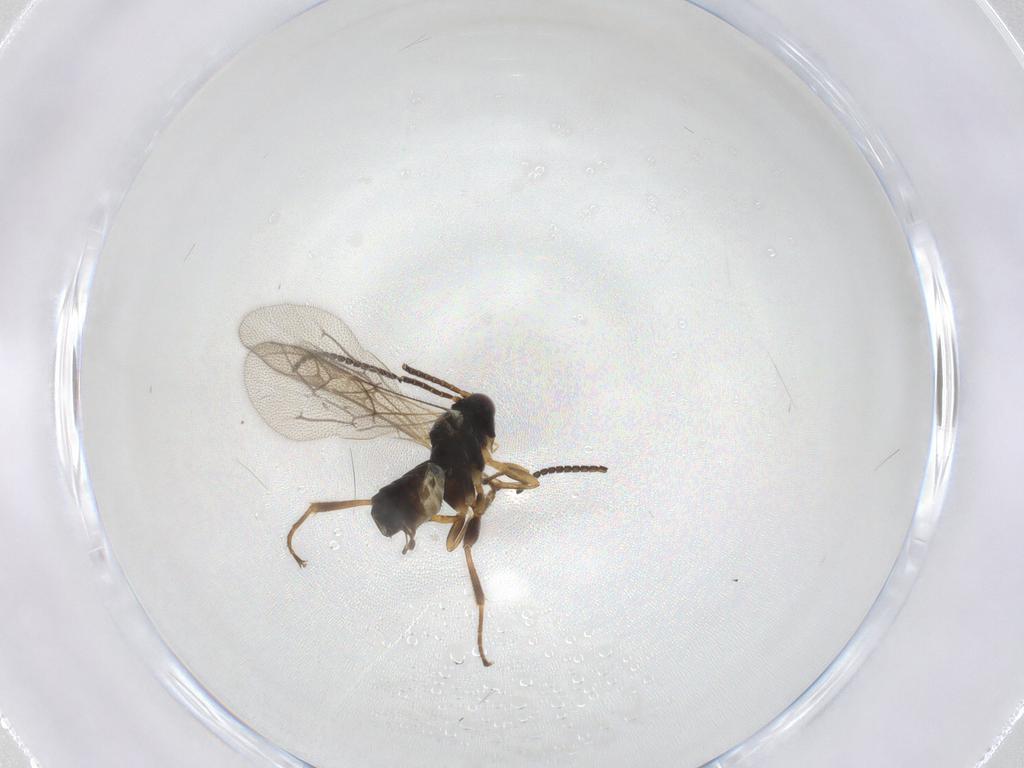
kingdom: Animalia
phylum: Arthropoda
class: Insecta
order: Hymenoptera
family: Ichneumonidae
